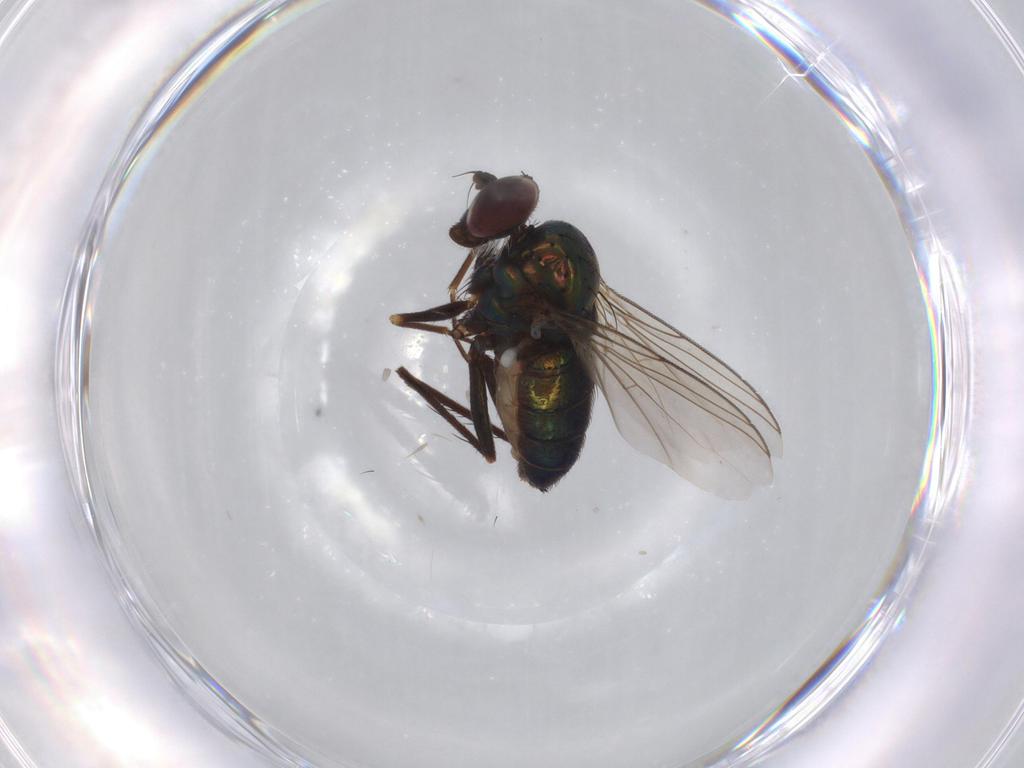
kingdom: Animalia
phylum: Arthropoda
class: Insecta
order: Diptera
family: Dolichopodidae
